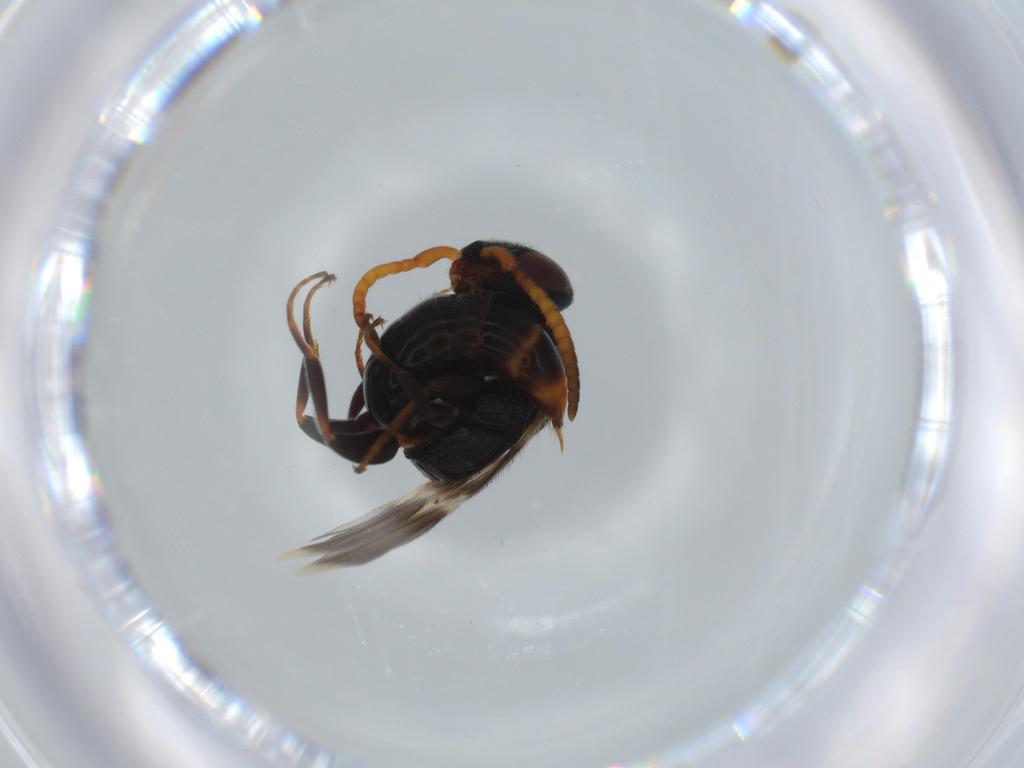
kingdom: Animalia
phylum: Arthropoda
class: Insecta
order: Hymenoptera
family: Bethylidae
